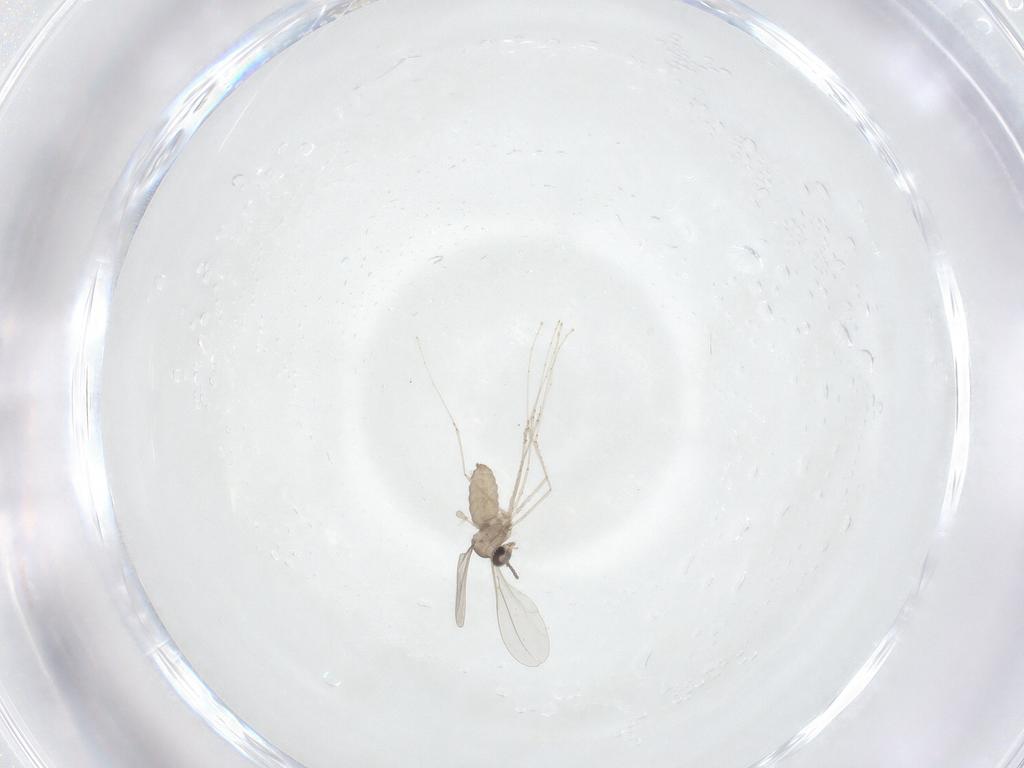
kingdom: Animalia
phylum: Arthropoda
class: Insecta
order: Diptera
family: Cecidomyiidae
